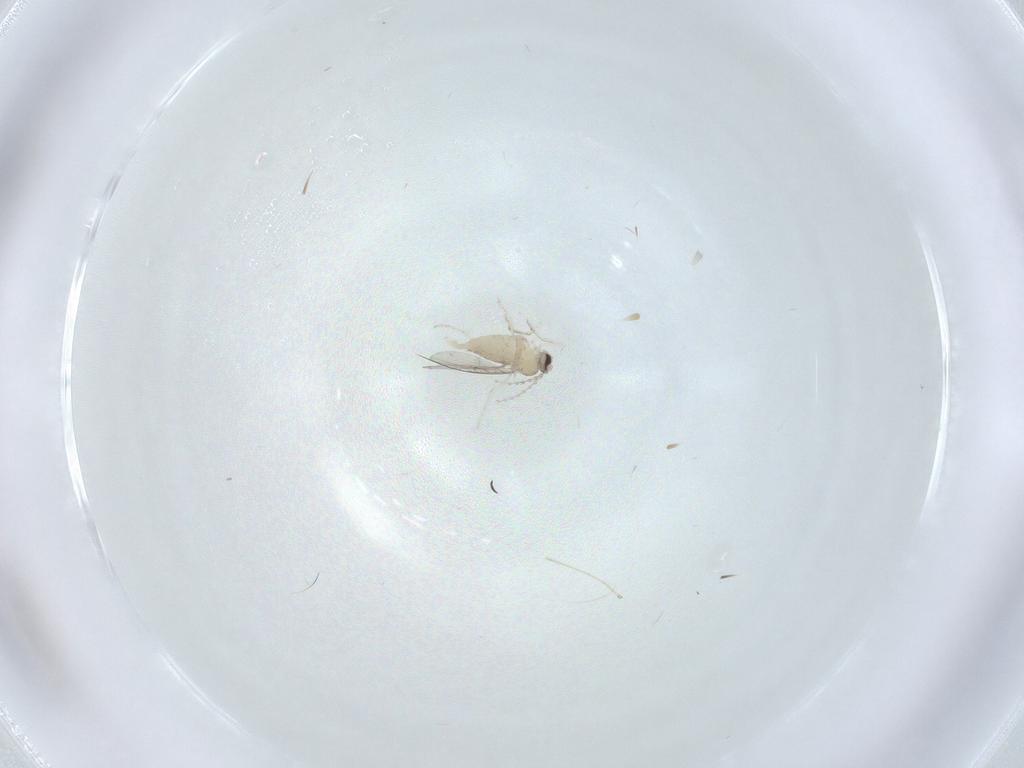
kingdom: Animalia
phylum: Arthropoda
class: Insecta
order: Diptera
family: Cecidomyiidae
